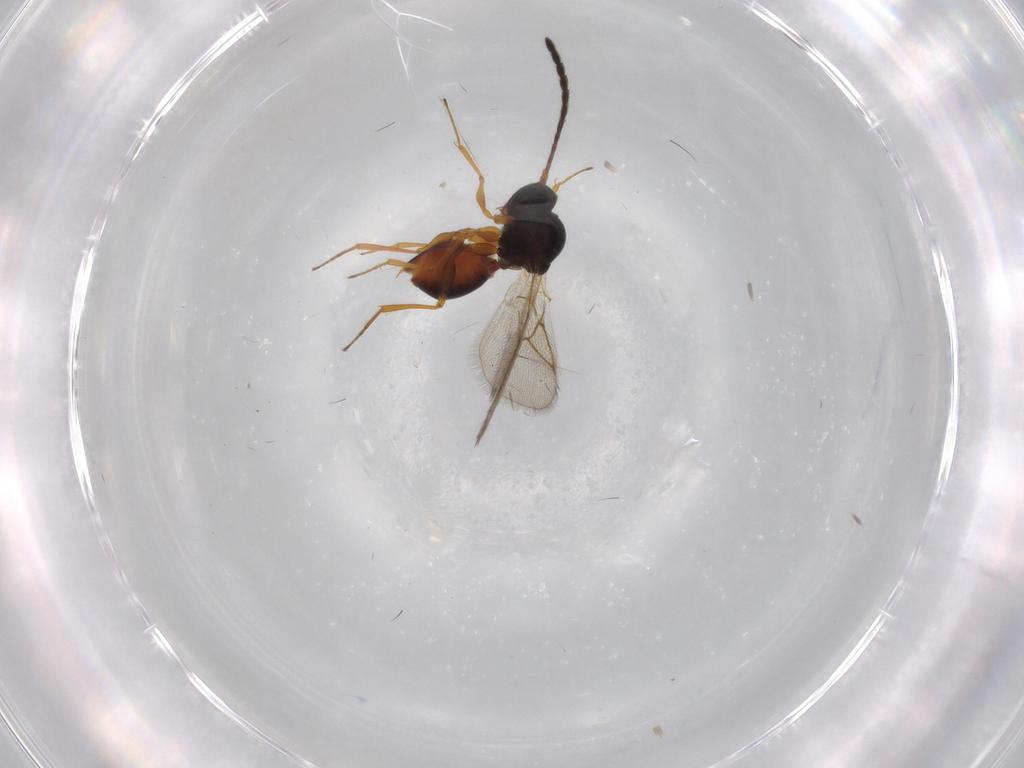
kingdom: Animalia
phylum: Arthropoda
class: Insecta
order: Hymenoptera
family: Figitidae
